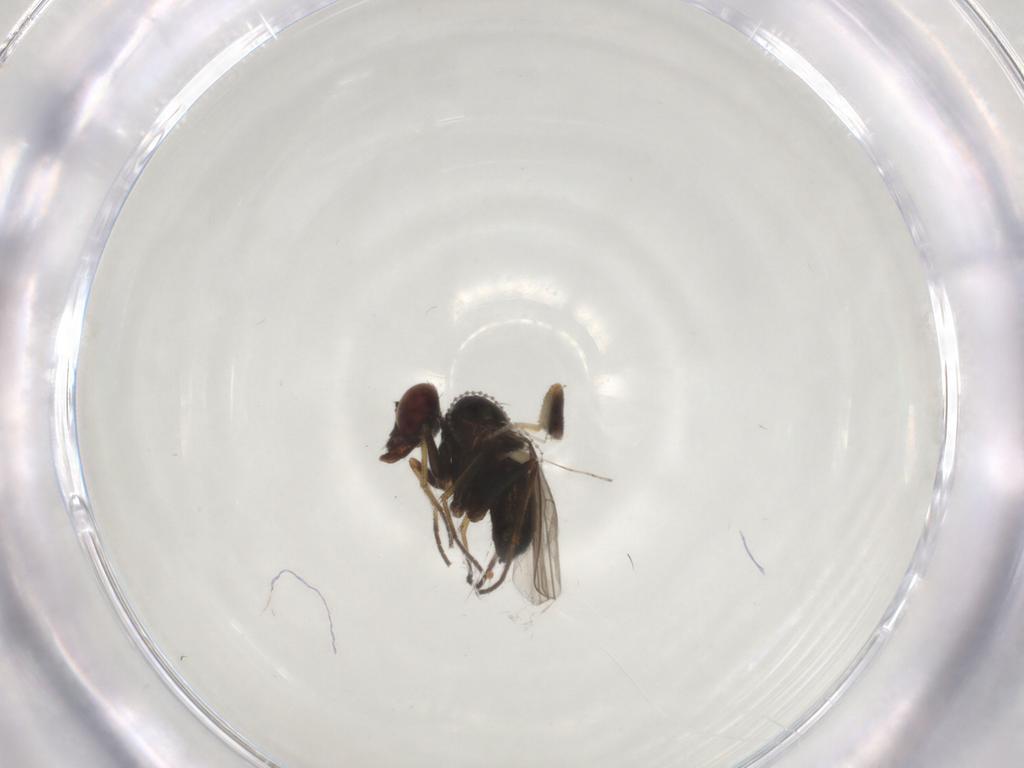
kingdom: Animalia
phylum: Arthropoda
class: Insecta
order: Diptera
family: Dolichopodidae
